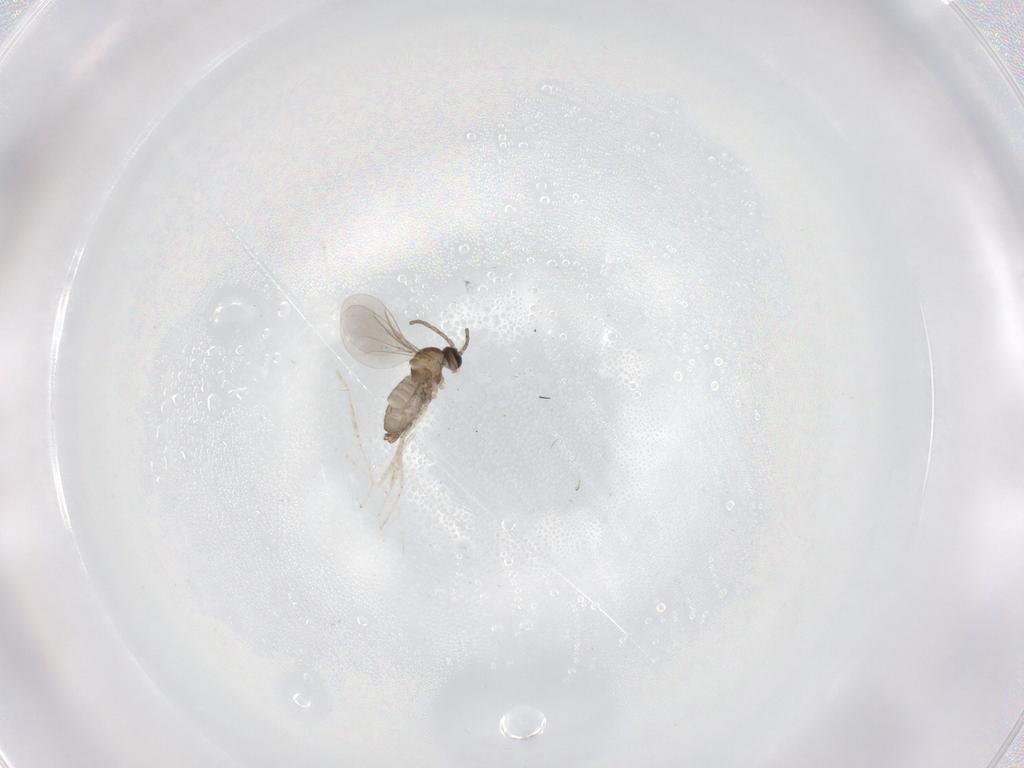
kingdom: Animalia
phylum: Arthropoda
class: Insecta
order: Diptera
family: Cecidomyiidae
